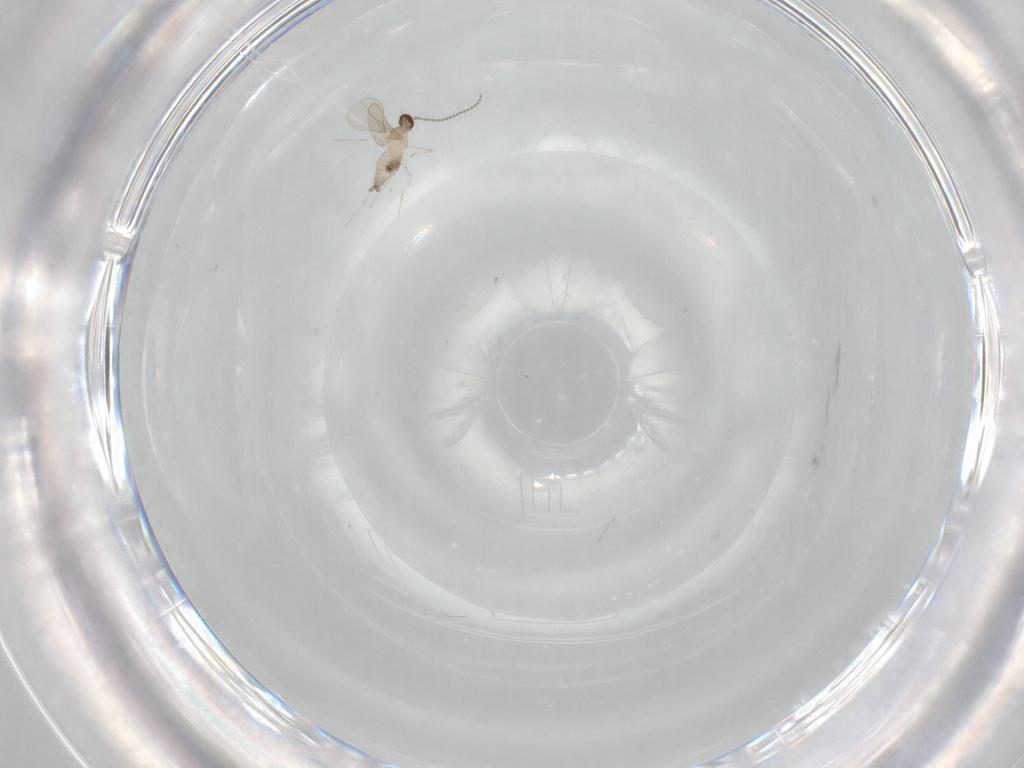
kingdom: Animalia
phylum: Arthropoda
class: Insecta
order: Diptera
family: Cecidomyiidae
